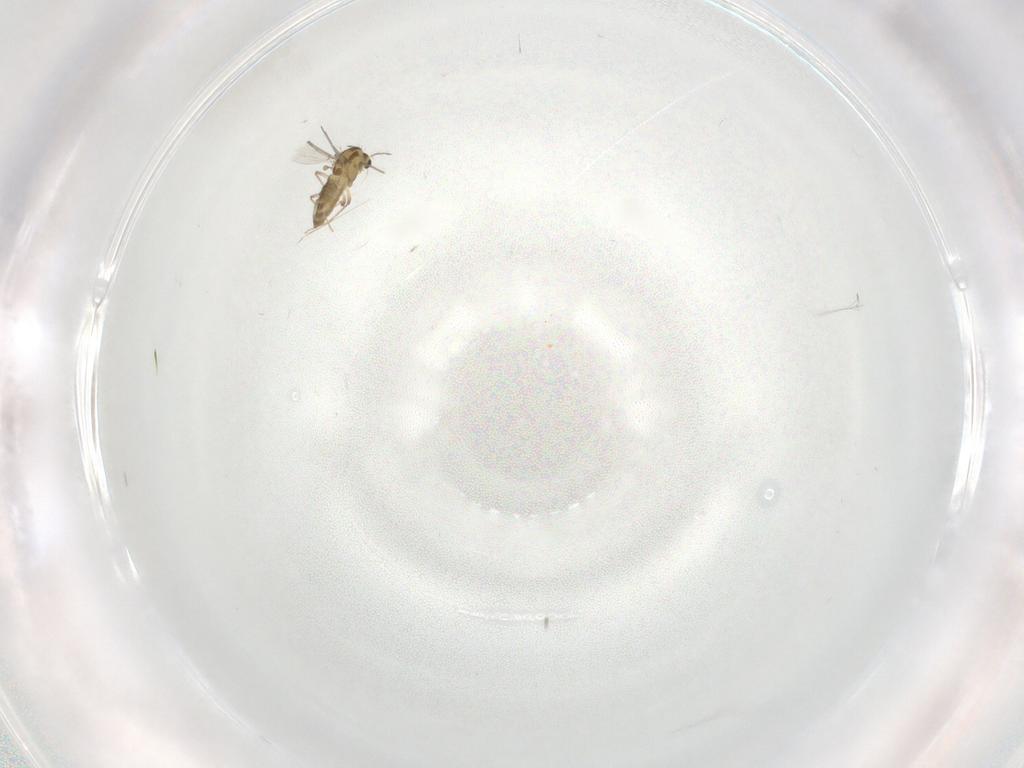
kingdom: Animalia
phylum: Arthropoda
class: Insecta
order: Diptera
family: Chironomidae
